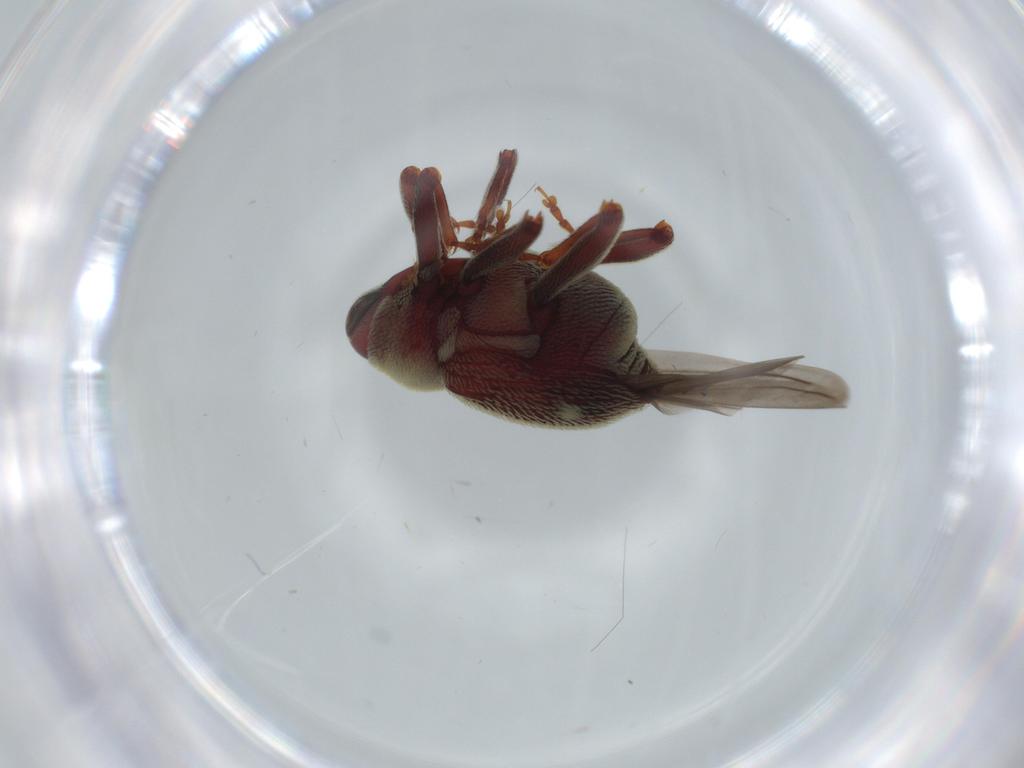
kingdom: Animalia
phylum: Arthropoda
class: Insecta
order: Coleoptera
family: Curculionidae
